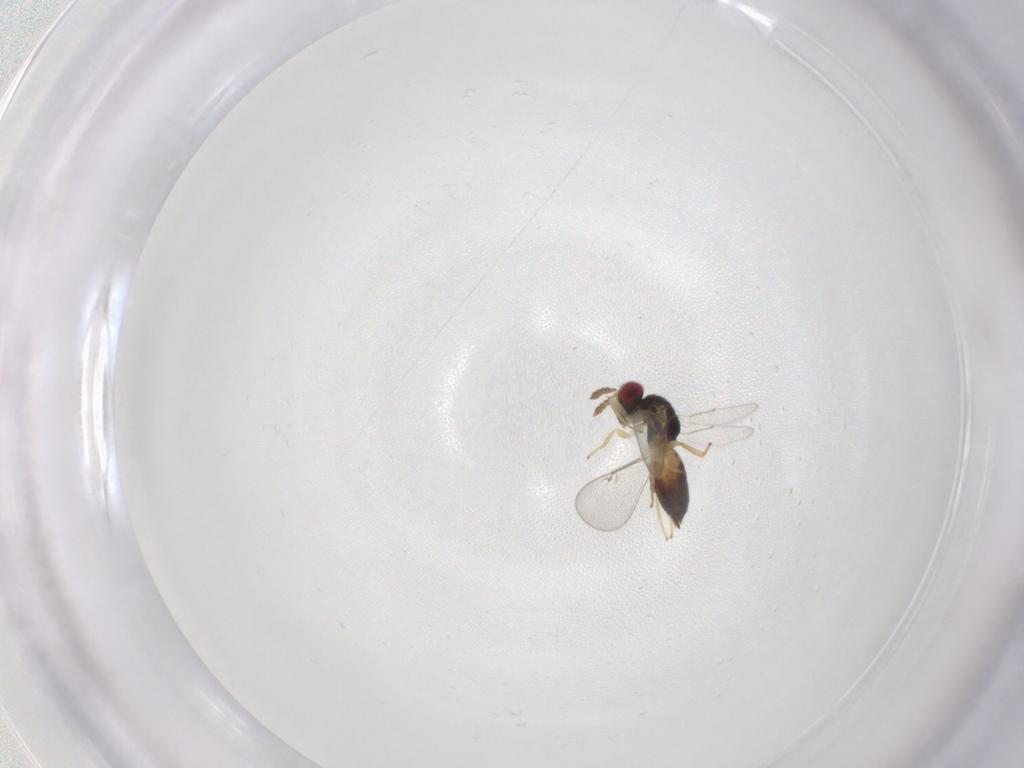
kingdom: Animalia
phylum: Arthropoda
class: Insecta
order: Hymenoptera
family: Eulophidae
